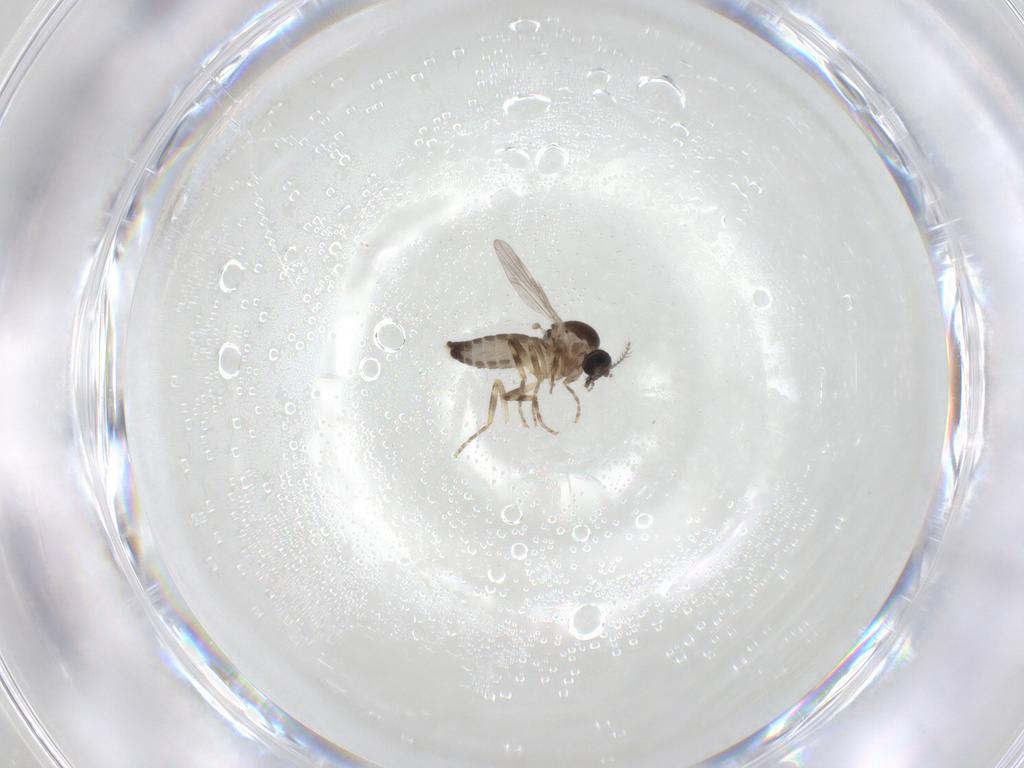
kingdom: Animalia
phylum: Arthropoda
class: Insecta
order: Diptera
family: Ceratopogonidae
